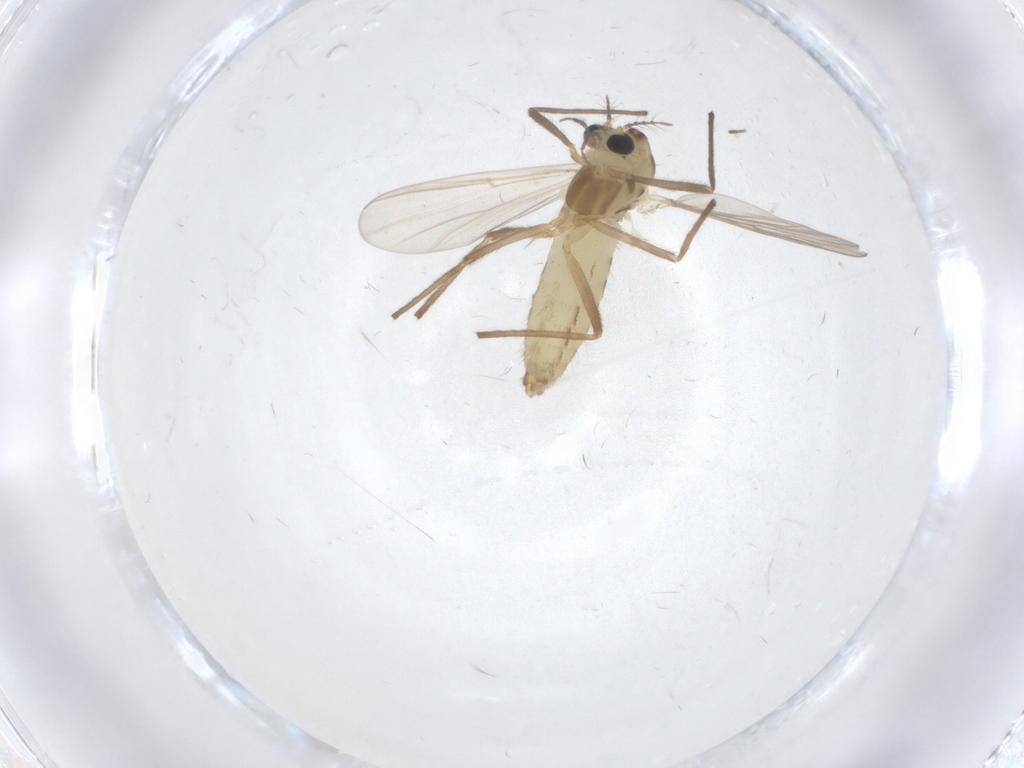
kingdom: Animalia
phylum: Arthropoda
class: Insecta
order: Diptera
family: Chironomidae
